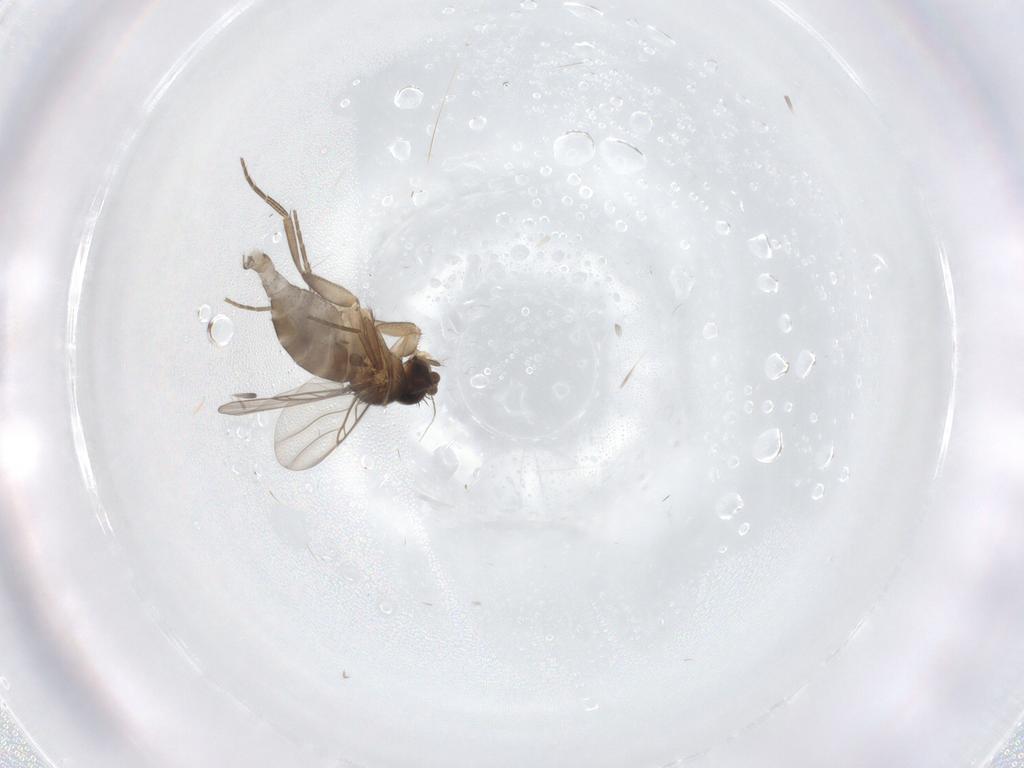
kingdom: Animalia
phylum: Arthropoda
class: Insecta
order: Diptera
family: Phoridae
